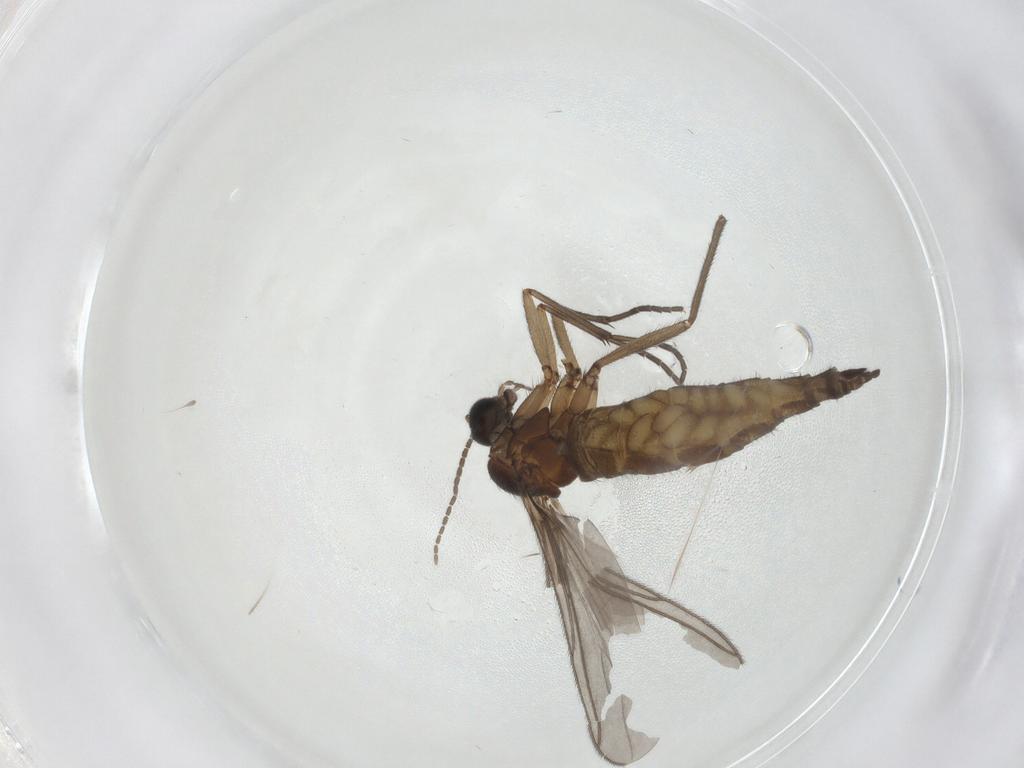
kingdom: Animalia
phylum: Arthropoda
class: Insecta
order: Diptera
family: Sciaridae
